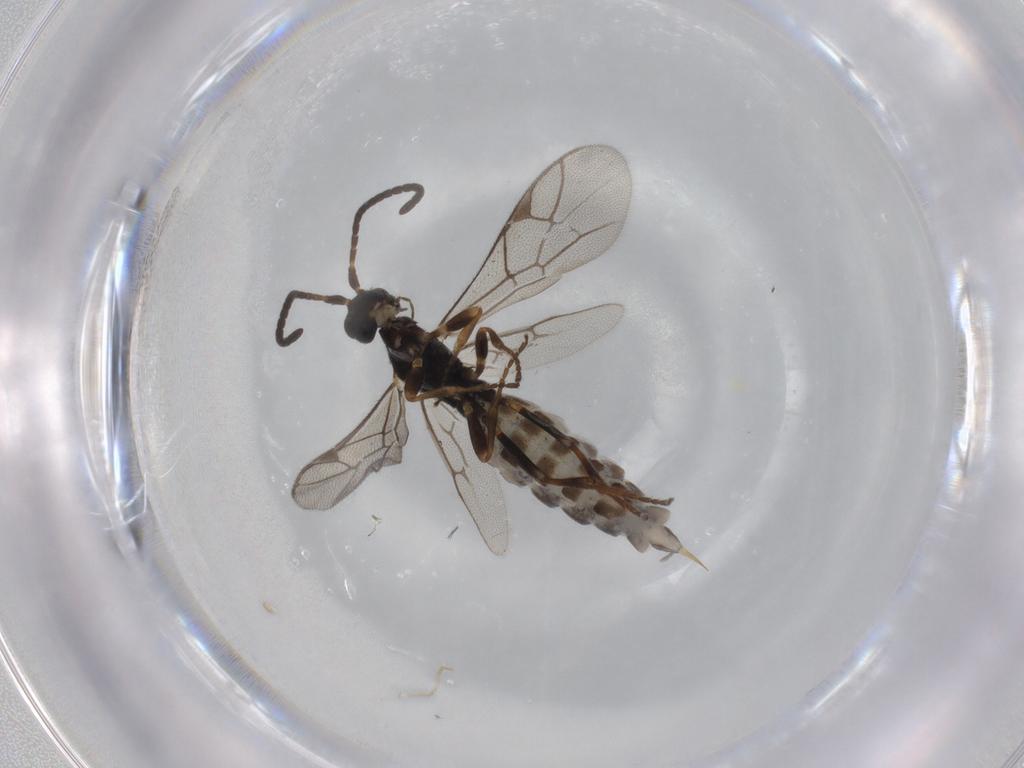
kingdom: Animalia
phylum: Arthropoda
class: Insecta
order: Hymenoptera
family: Ichneumonidae
